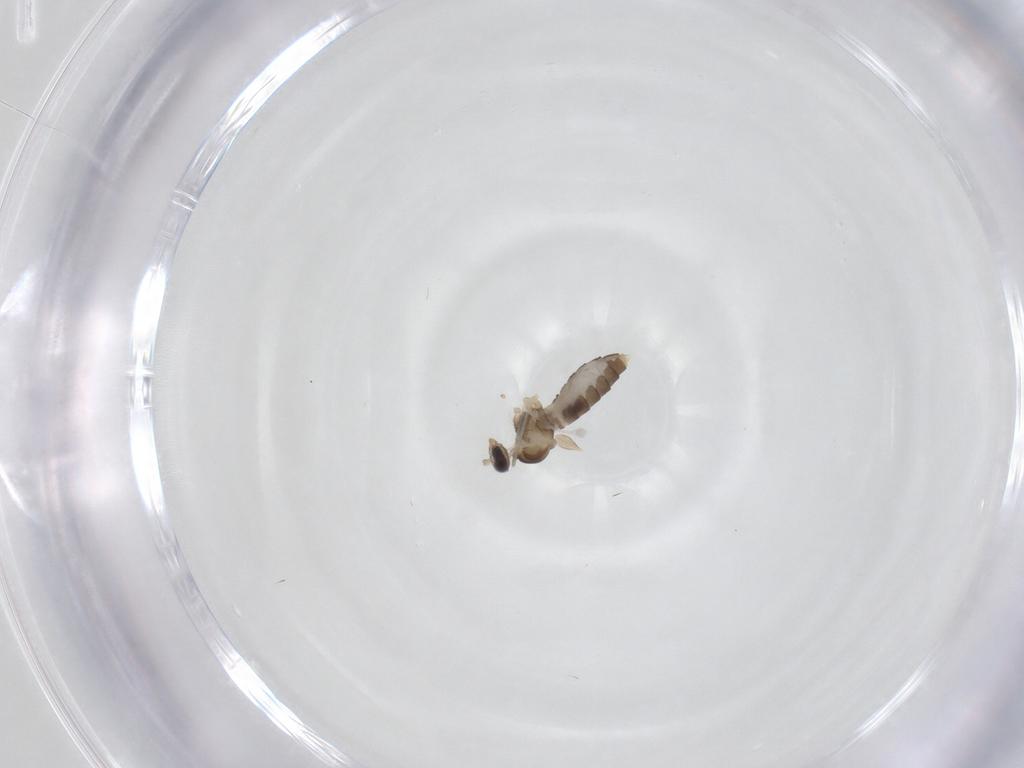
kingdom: Animalia
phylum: Arthropoda
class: Insecta
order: Diptera
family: Cecidomyiidae
